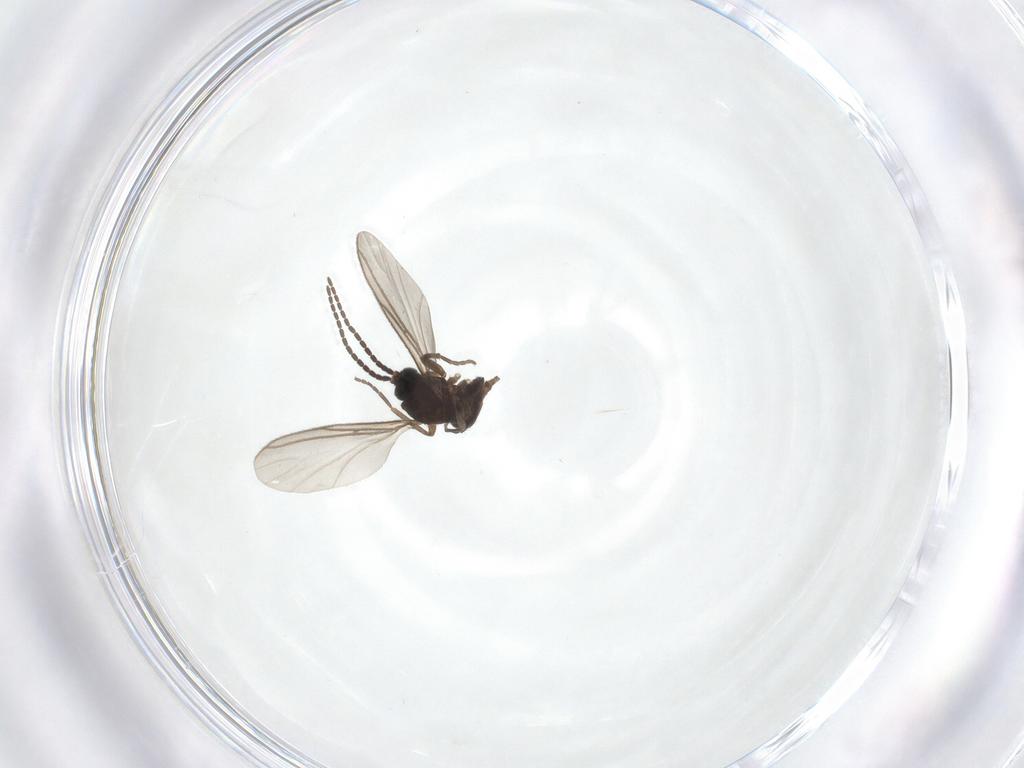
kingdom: Animalia
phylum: Arthropoda
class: Insecta
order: Diptera
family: Sciaridae
